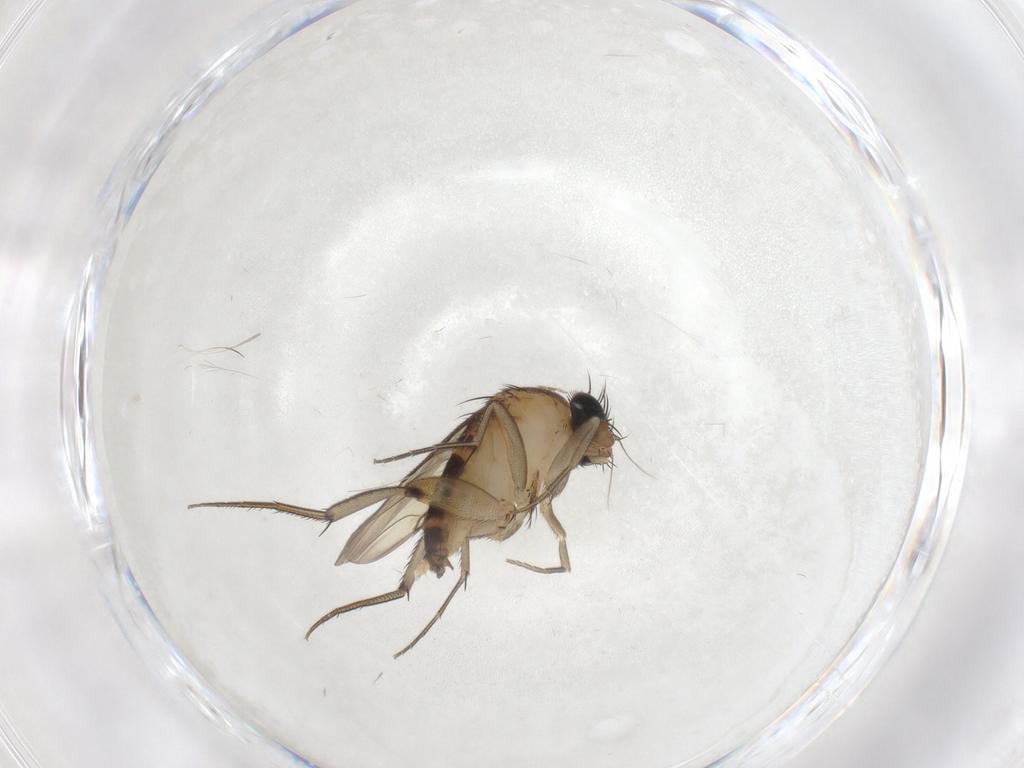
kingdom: Animalia
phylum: Arthropoda
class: Insecta
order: Diptera
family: Phoridae
